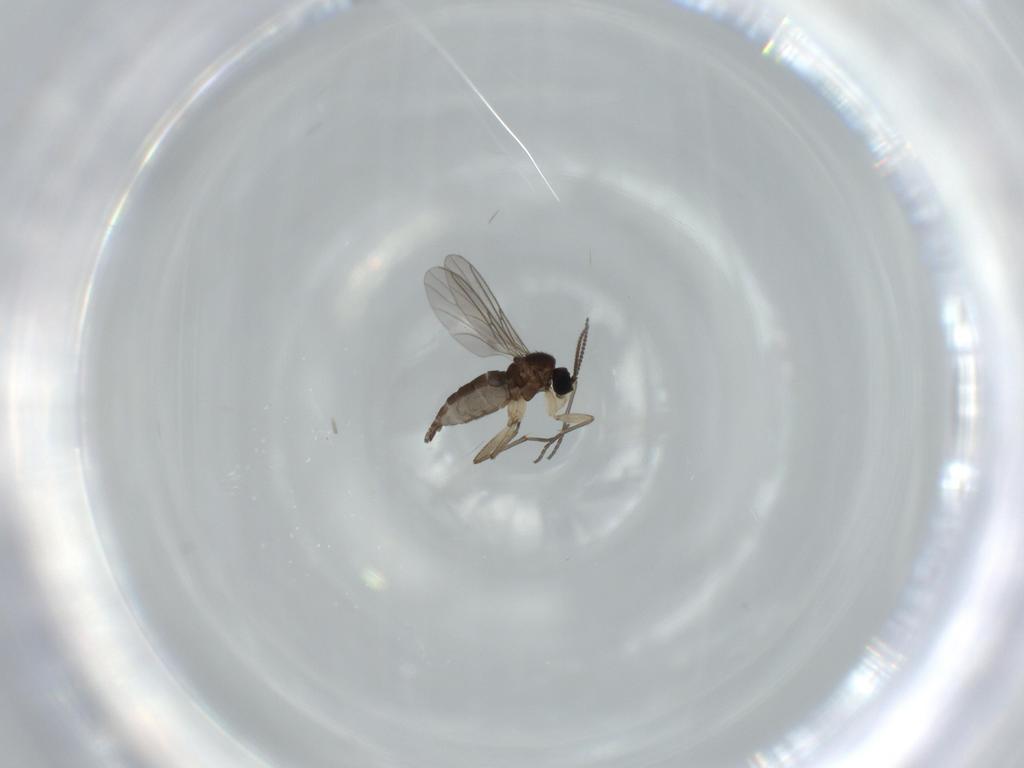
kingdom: Animalia
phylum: Arthropoda
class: Insecta
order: Diptera
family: Sciaridae
